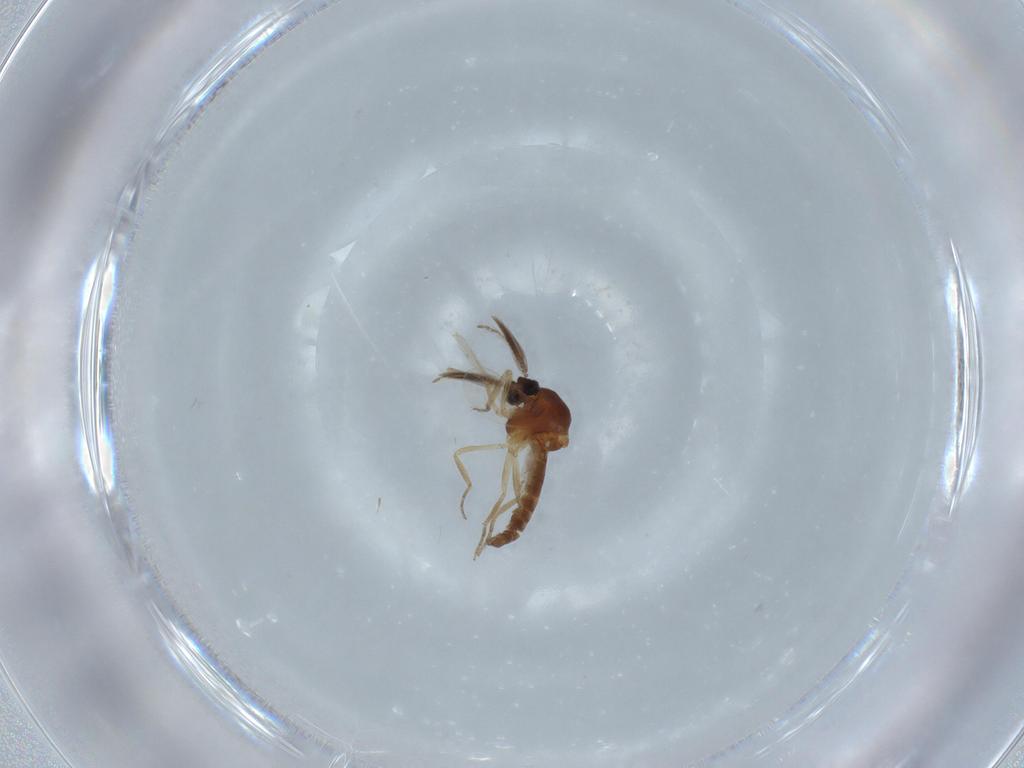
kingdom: Animalia
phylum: Arthropoda
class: Insecta
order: Diptera
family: Ceratopogonidae
